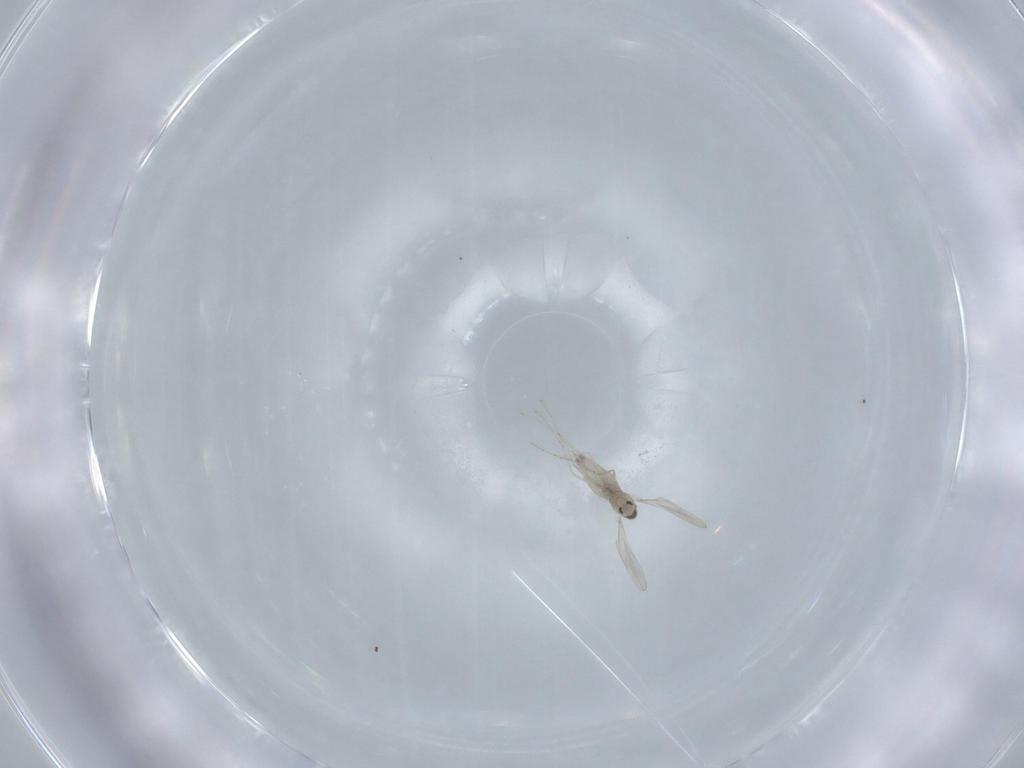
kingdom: Animalia
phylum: Arthropoda
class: Insecta
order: Diptera
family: Cecidomyiidae
